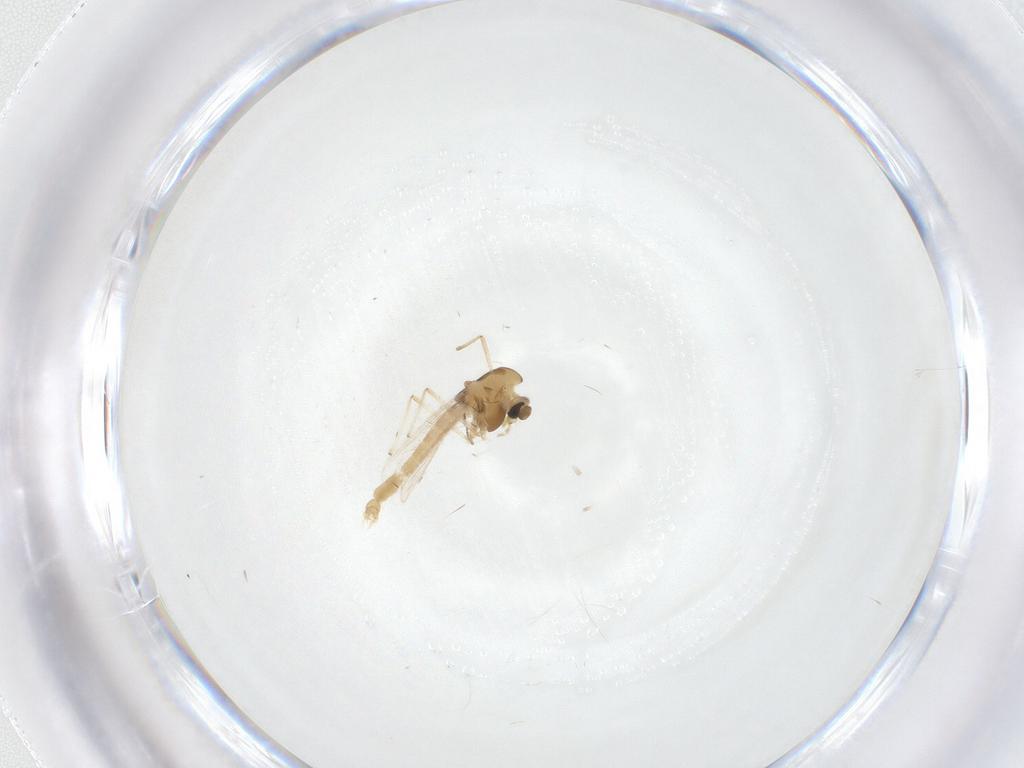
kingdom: Animalia
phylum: Arthropoda
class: Insecta
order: Diptera
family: Chironomidae
